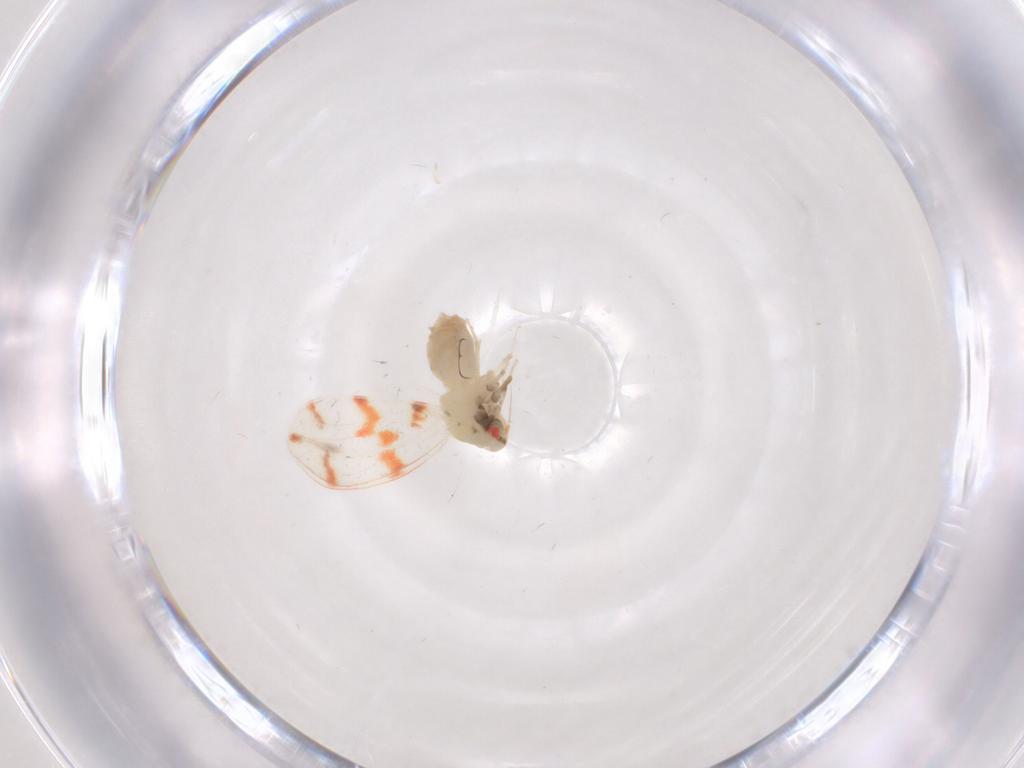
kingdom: Animalia
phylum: Arthropoda
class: Insecta
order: Hemiptera
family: Aleyrodidae
